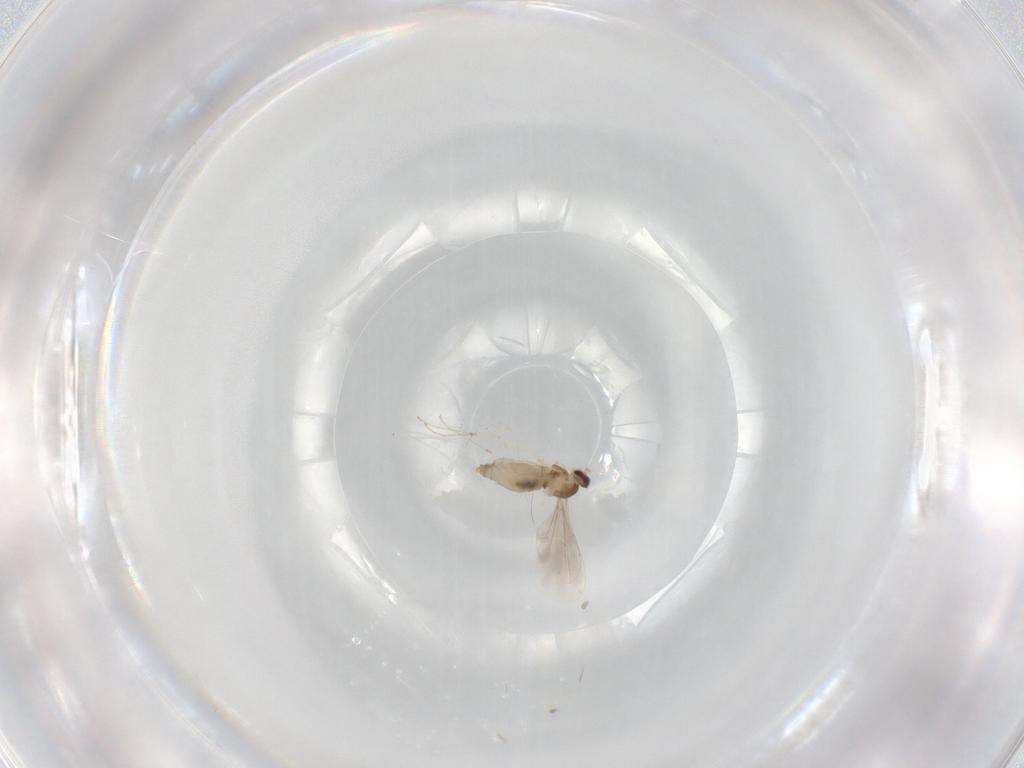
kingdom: Animalia
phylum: Arthropoda
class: Insecta
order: Diptera
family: Cecidomyiidae
